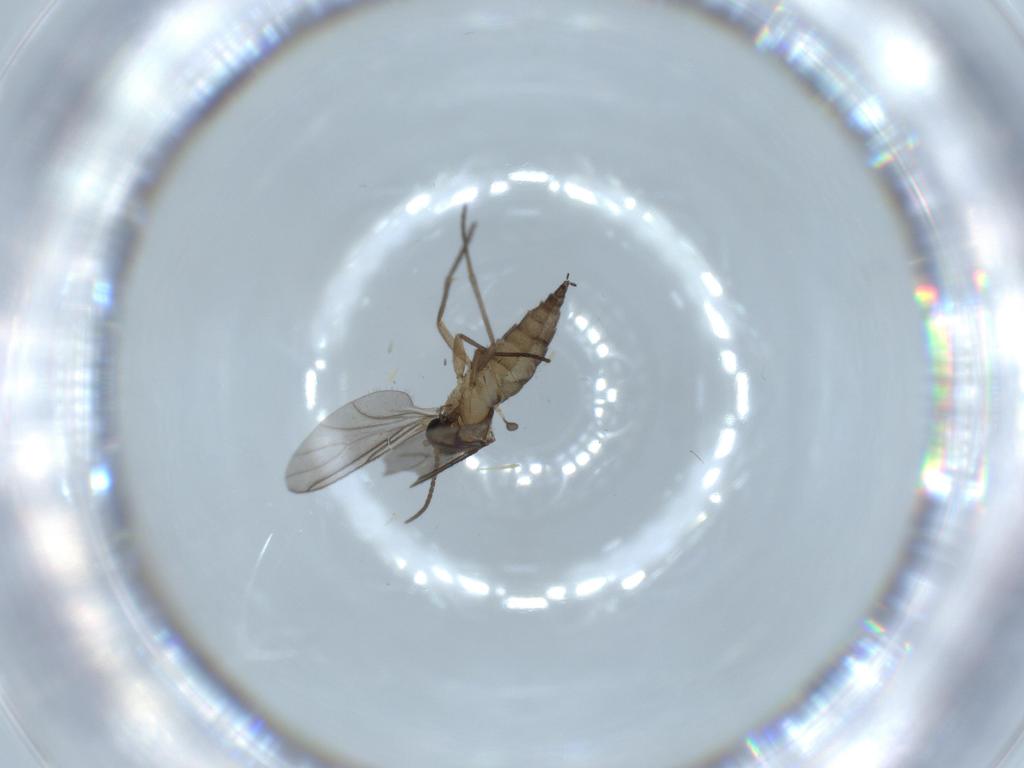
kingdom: Animalia
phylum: Arthropoda
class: Insecta
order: Diptera
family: Sciaridae
